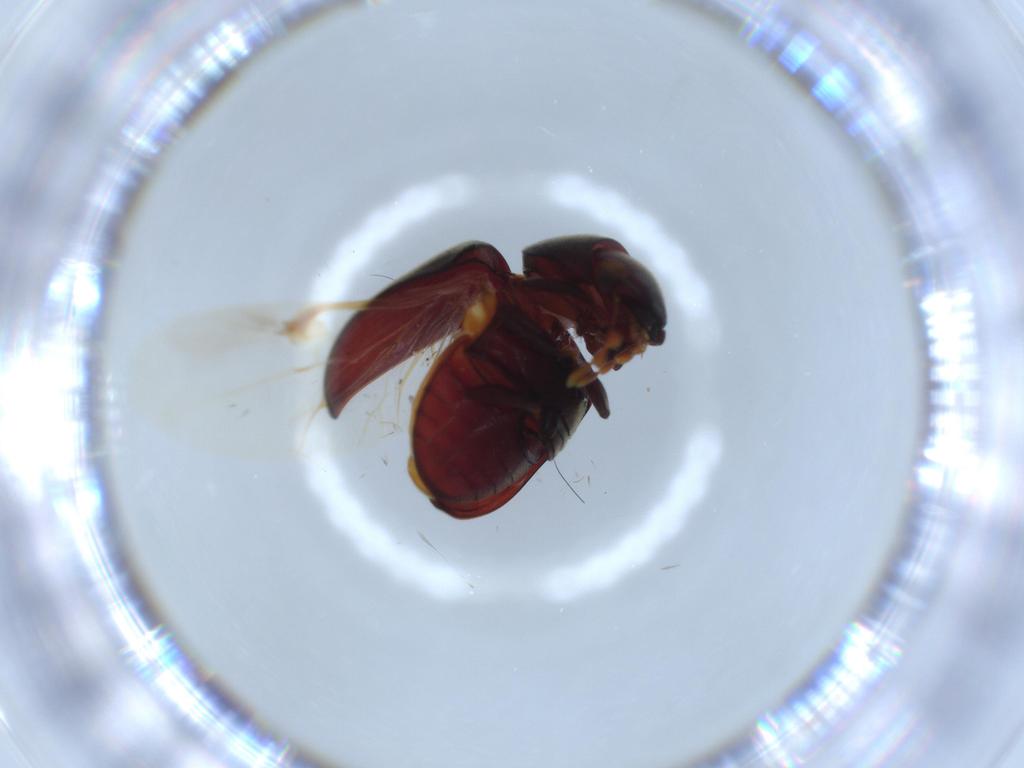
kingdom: Animalia
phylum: Arthropoda
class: Insecta
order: Coleoptera
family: Ptinidae
